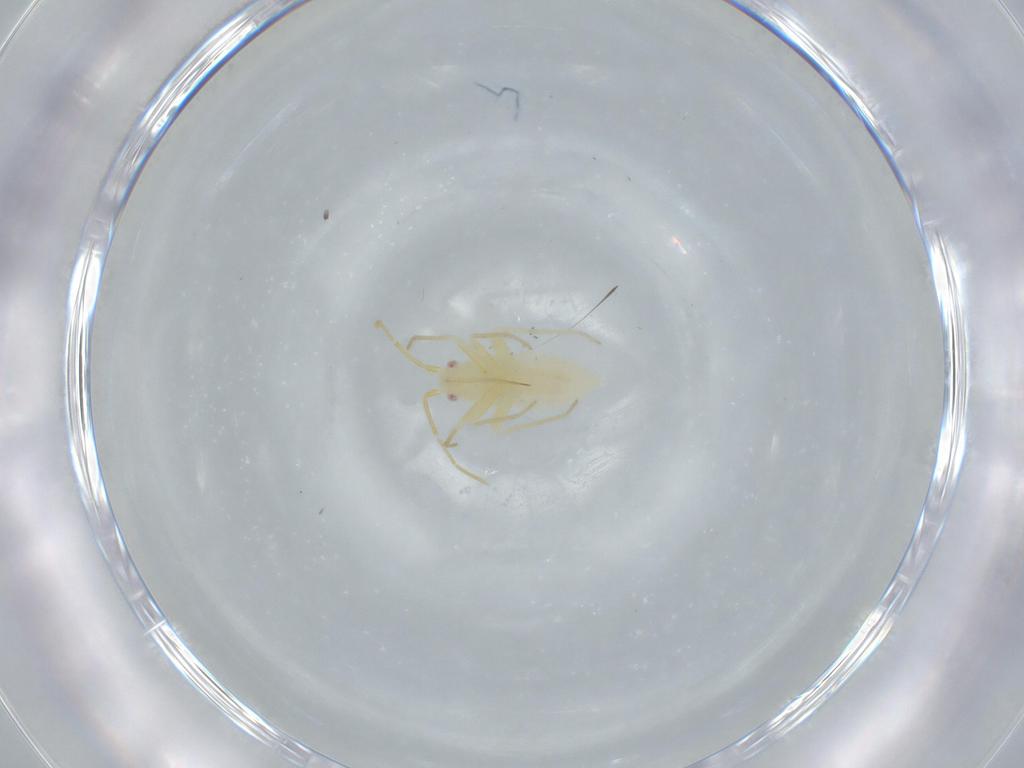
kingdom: Animalia
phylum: Arthropoda
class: Insecta
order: Hemiptera
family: Miridae
